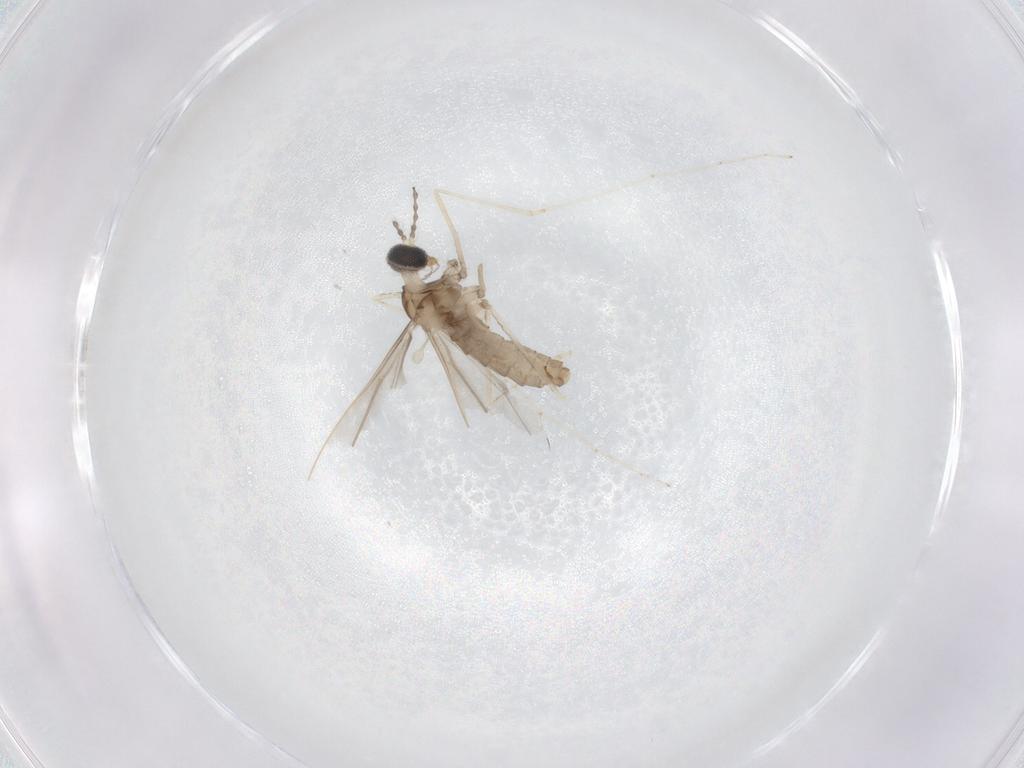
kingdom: Animalia
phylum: Arthropoda
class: Insecta
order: Diptera
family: Cecidomyiidae
